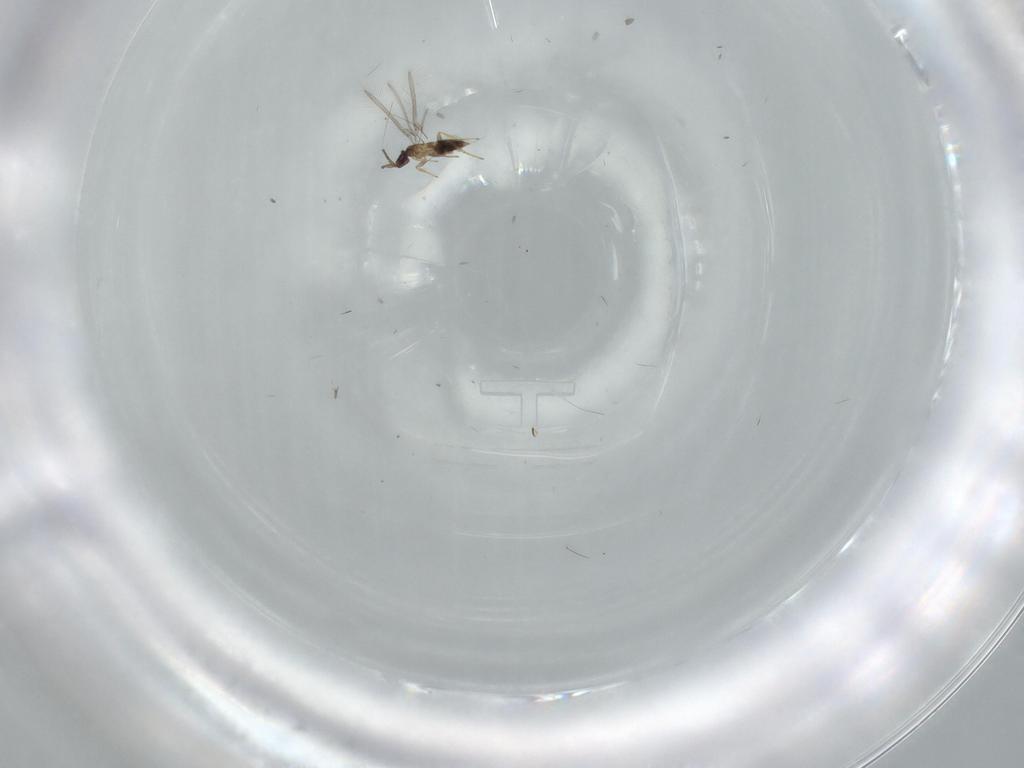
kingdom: Animalia
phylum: Arthropoda
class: Insecta
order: Hymenoptera
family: Mymaridae
